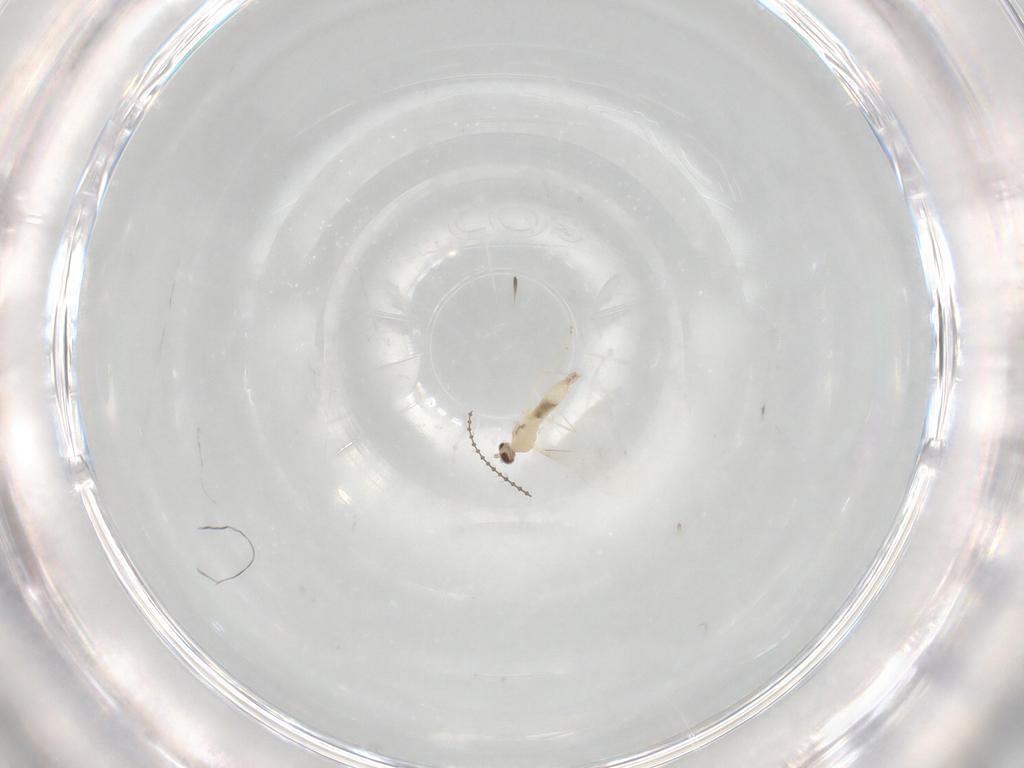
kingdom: Animalia
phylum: Arthropoda
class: Insecta
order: Diptera
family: Cecidomyiidae
